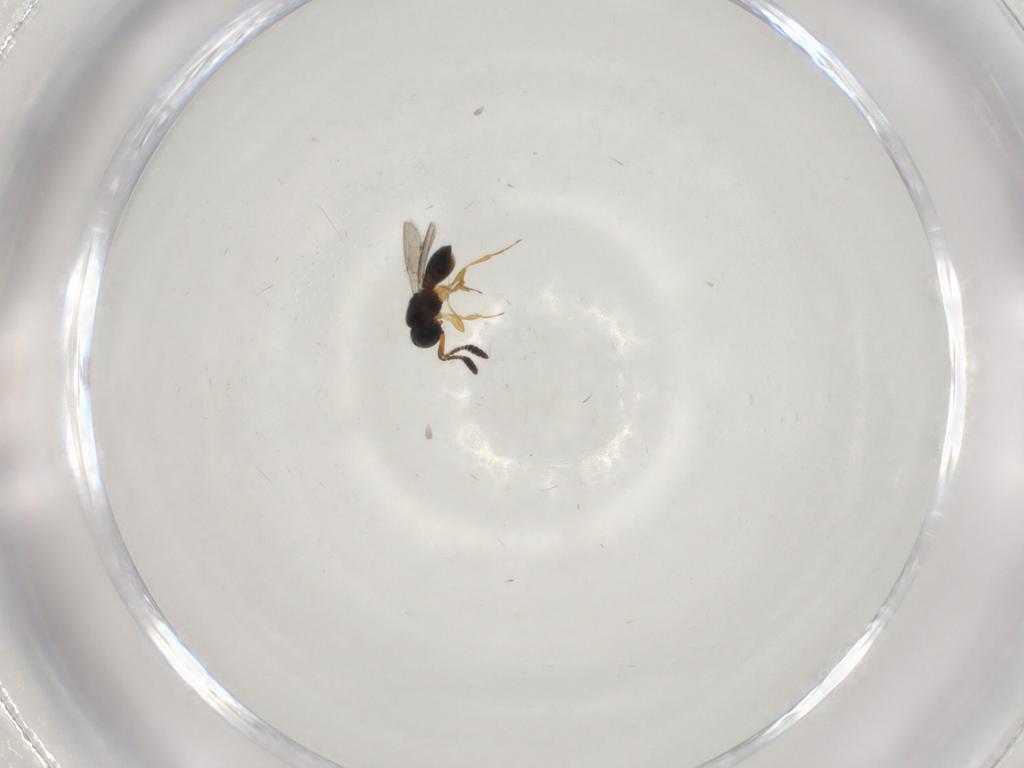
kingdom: Animalia
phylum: Arthropoda
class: Insecta
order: Hymenoptera
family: Scelionidae
